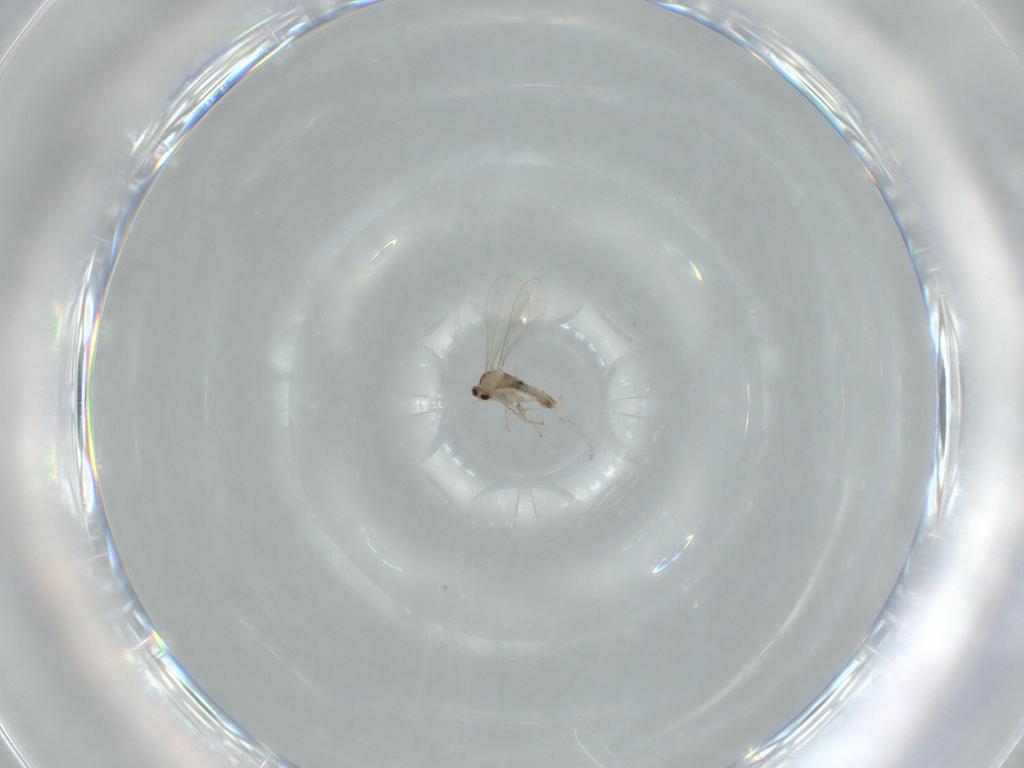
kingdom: Animalia
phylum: Arthropoda
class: Insecta
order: Diptera
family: Cecidomyiidae
